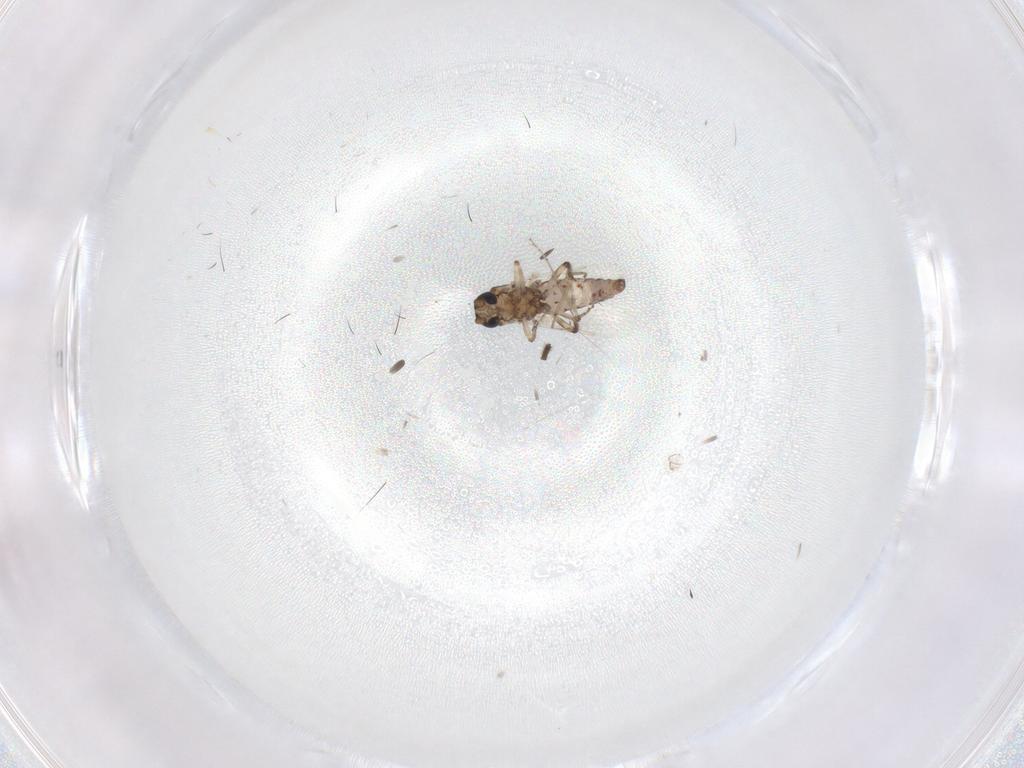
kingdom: Animalia
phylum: Arthropoda
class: Insecta
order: Diptera
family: Ceratopogonidae
